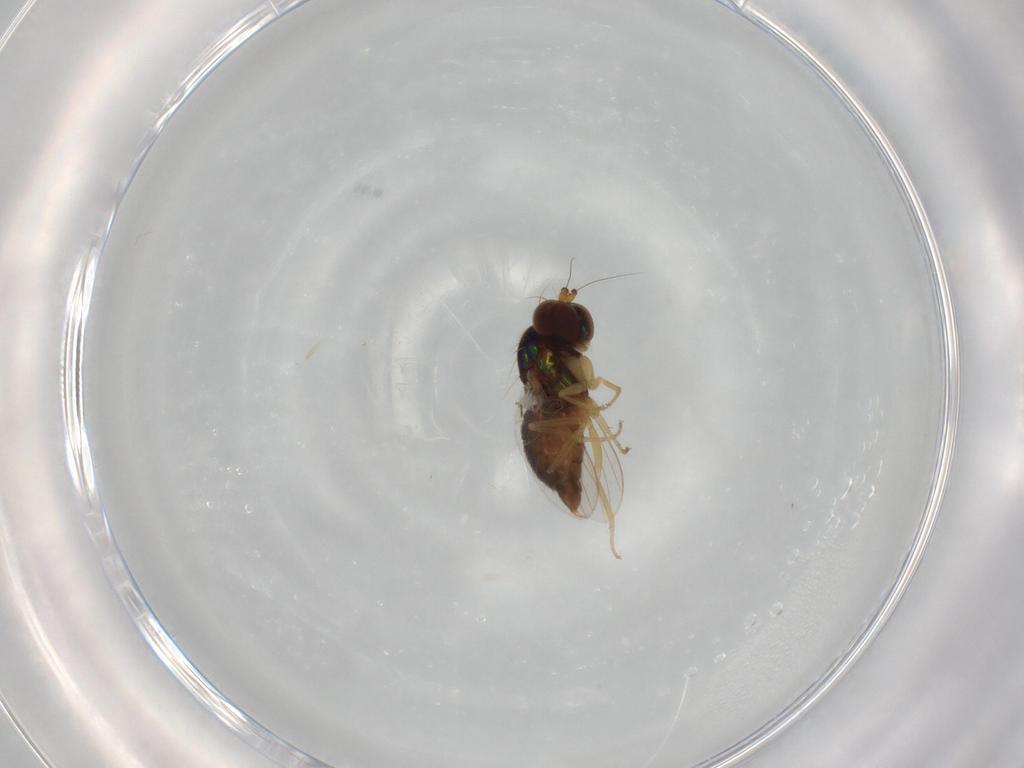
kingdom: Animalia
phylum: Arthropoda
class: Insecta
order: Diptera
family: Dolichopodidae
